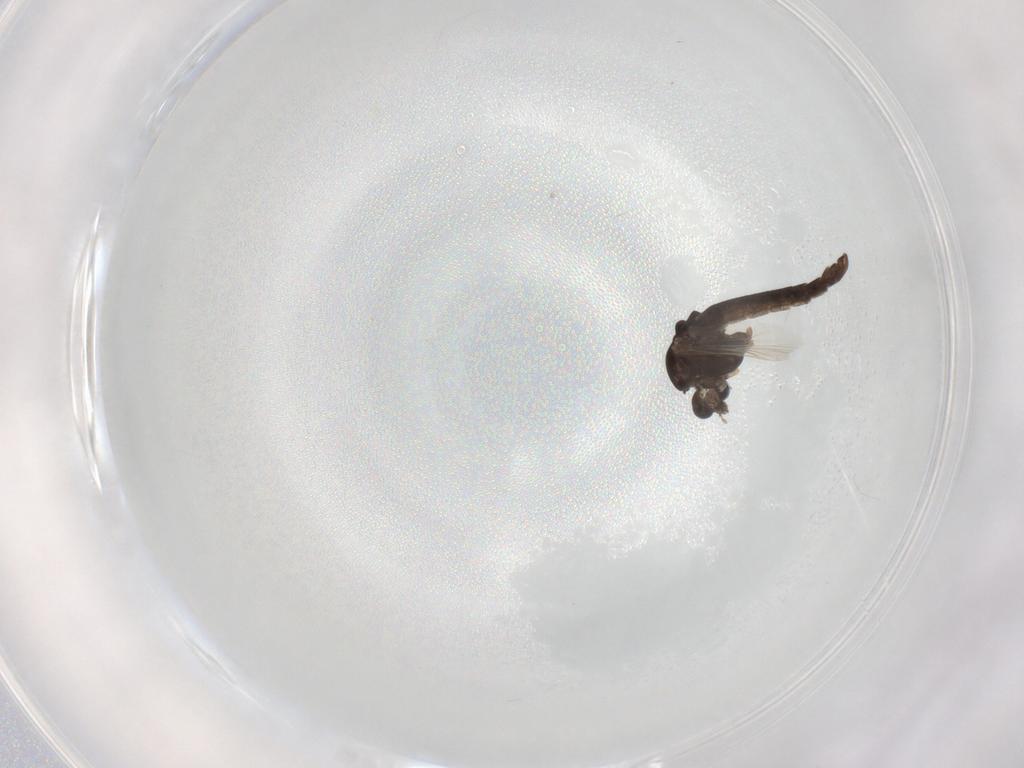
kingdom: Animalia
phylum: Arthropoda
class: Insecta
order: Diptera
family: Chironomidae
